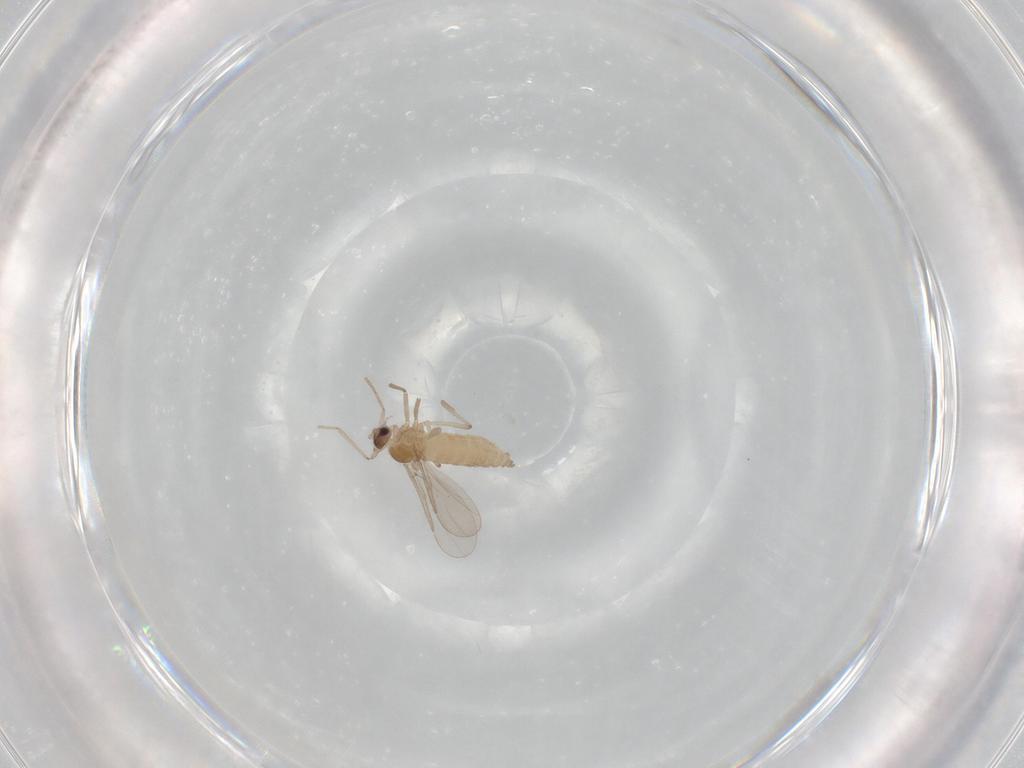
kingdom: Animalia
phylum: Arthropoda
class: Insecta
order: Diptera
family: Cecidomyiidae
